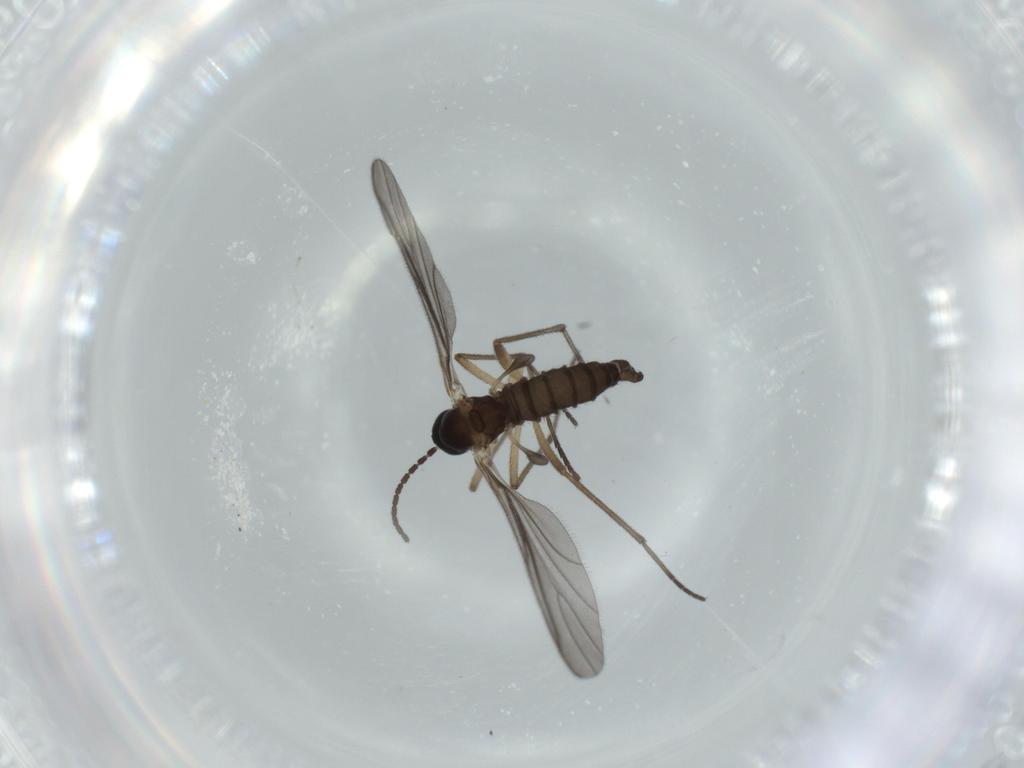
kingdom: Animalia
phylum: Arthropoda
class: Insecta
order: Diptera
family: Sciaridae
